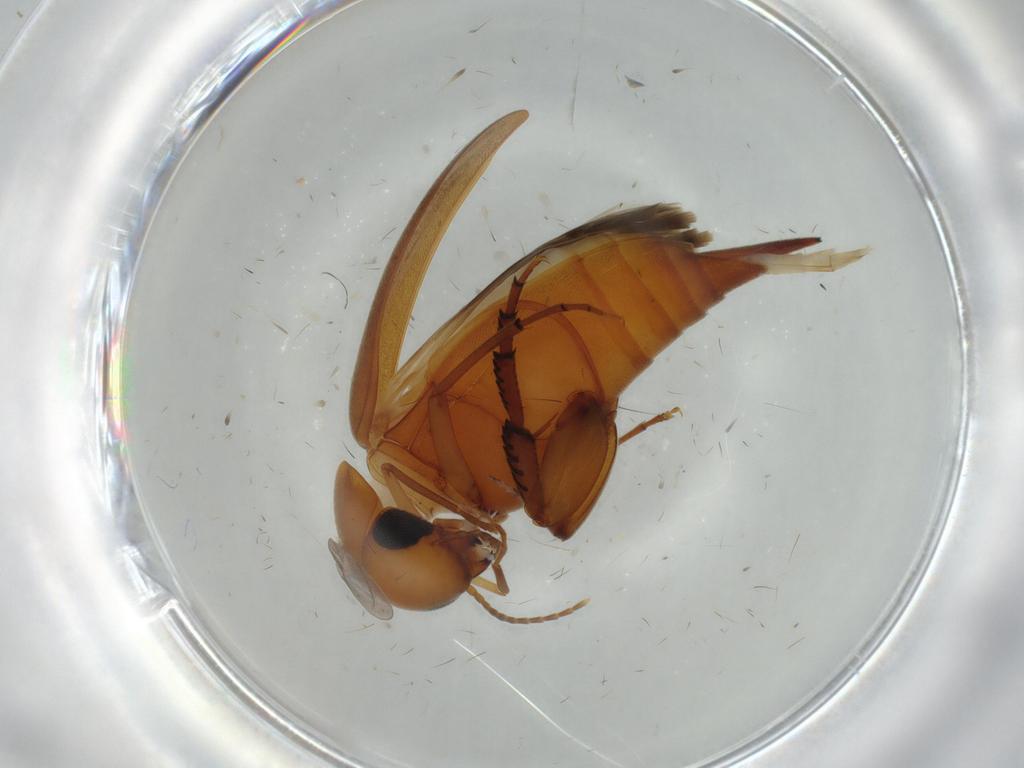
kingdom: Animalia
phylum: Arthropoda
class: Insecta
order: Coleoptera
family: Mordellidae
